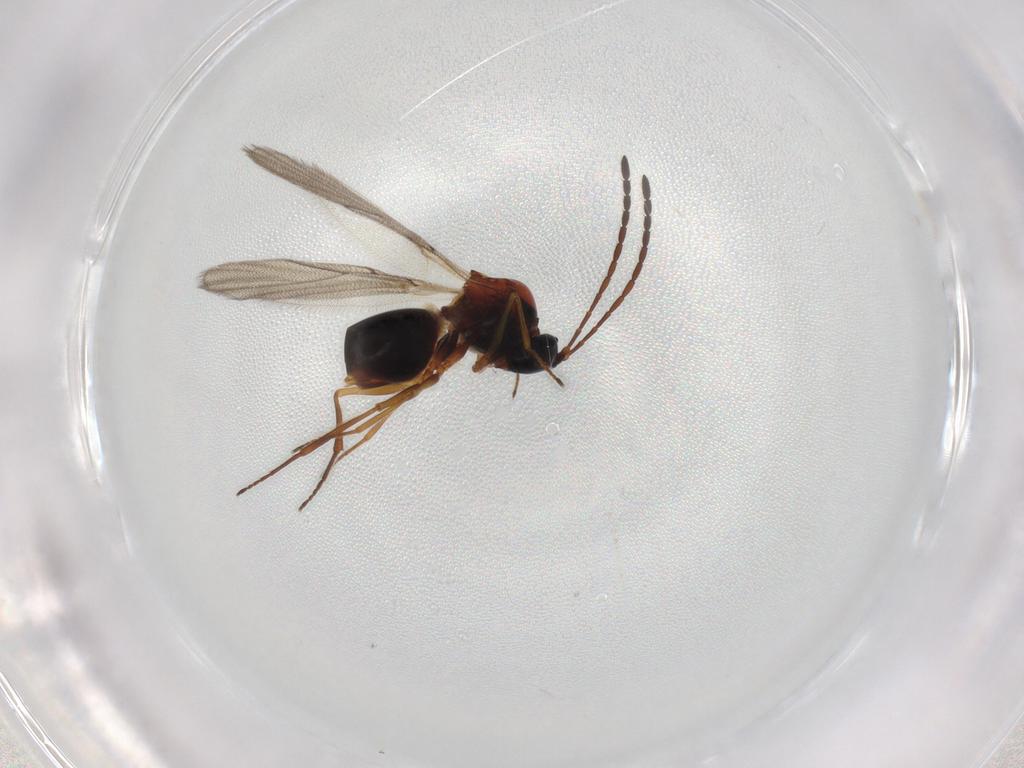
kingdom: Animalia
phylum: Arthropoda
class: Insecta
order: Hymenoptera
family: Figitidae
